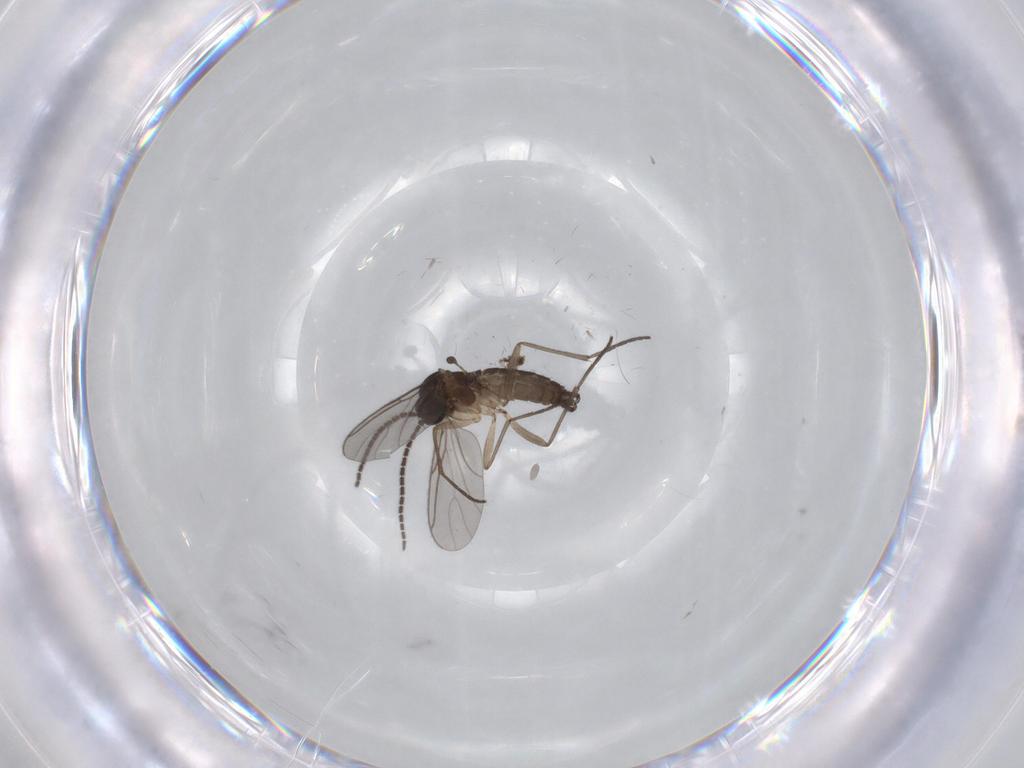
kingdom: Animalia
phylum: Arthropoda
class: Insecta
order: Diptera
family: Sciaridae
